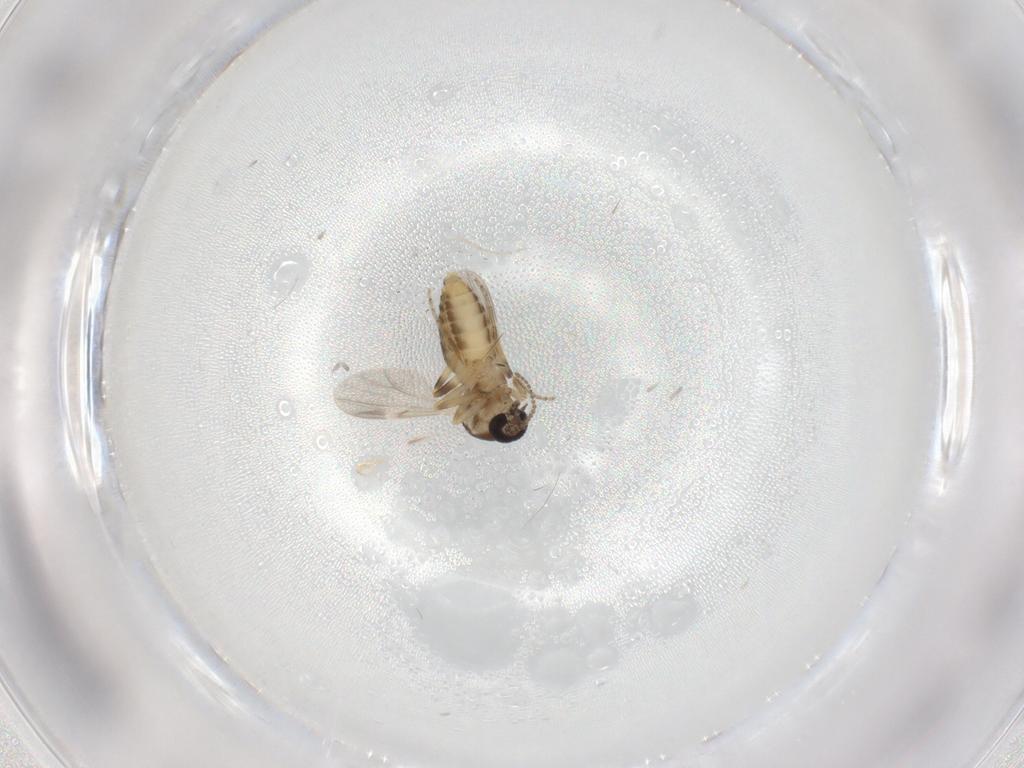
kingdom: Animalia
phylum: Arthropoda
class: Insecta
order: Diptera
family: Ceratopogonidae
